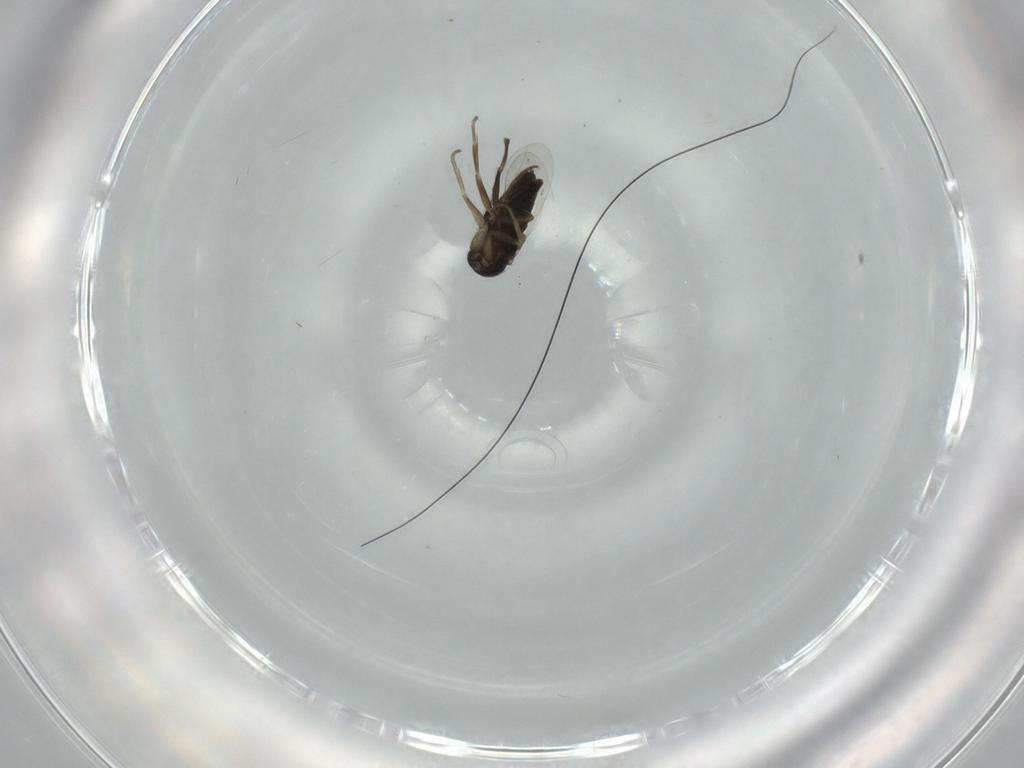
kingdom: Animalia
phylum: Arthropoda
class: Insecta
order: Diptera
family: Phoridae
